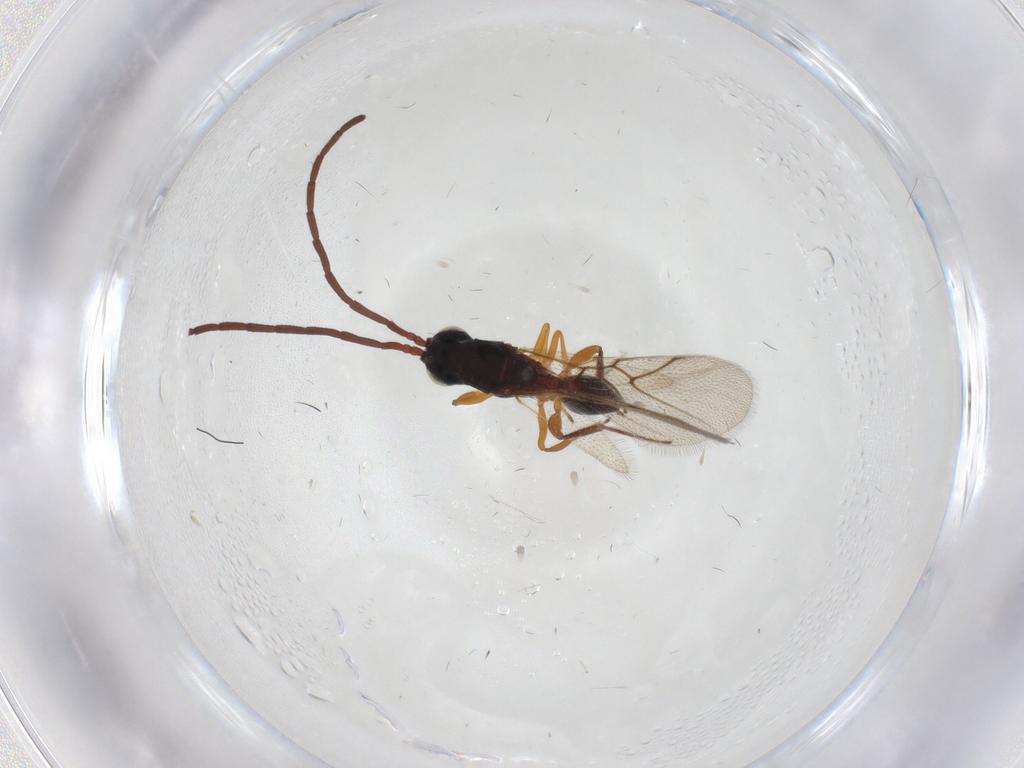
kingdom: Animalia
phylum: Arthropoda
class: Insecta
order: Hymenoptera
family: Figitidae
